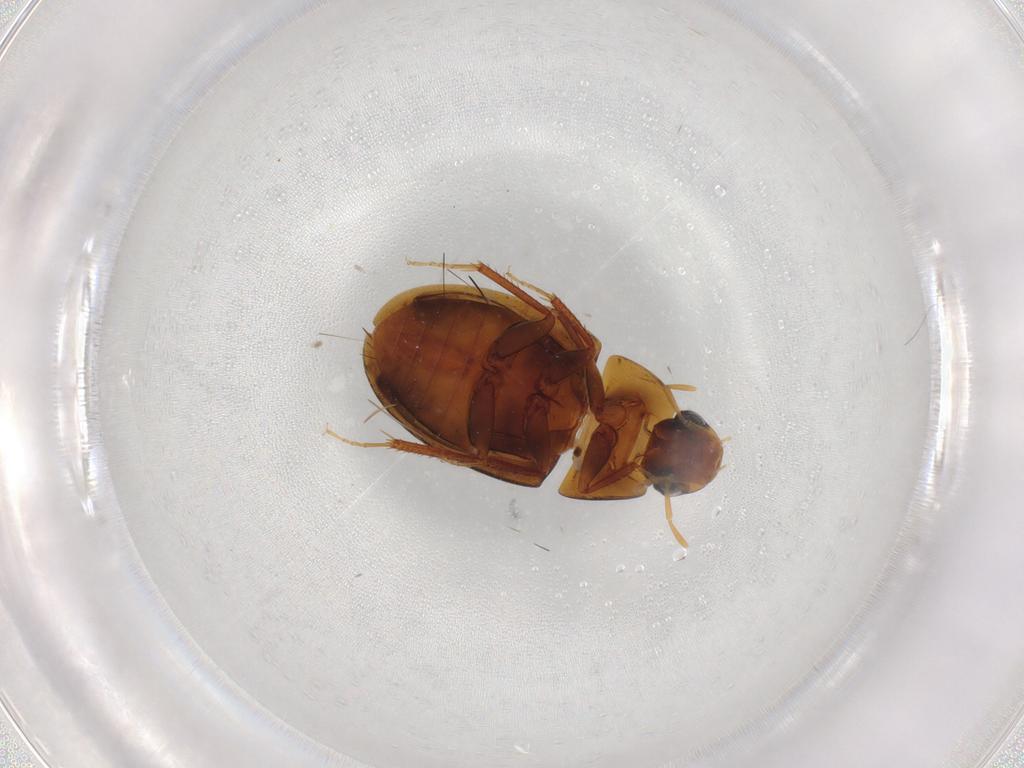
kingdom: Animalia
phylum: Arthropoda
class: Insecta
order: Coleoptera
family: Hydrophilidae
